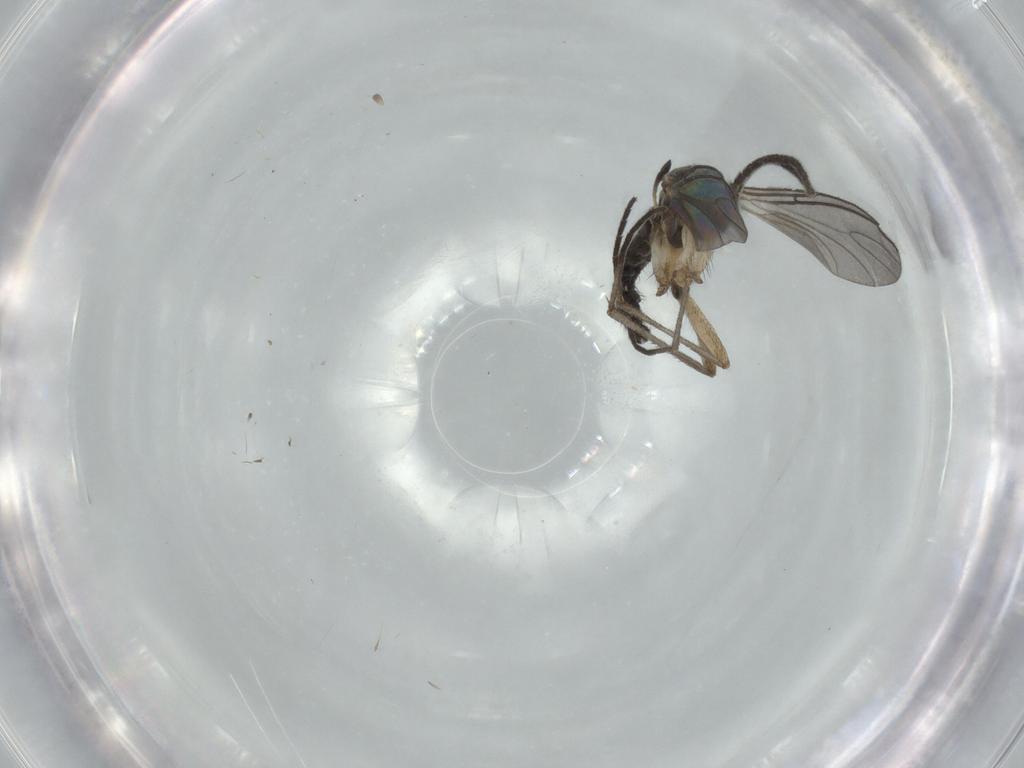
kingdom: Animalia
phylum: Arthropoda
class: Insecta
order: Diptera
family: Sciaridae
